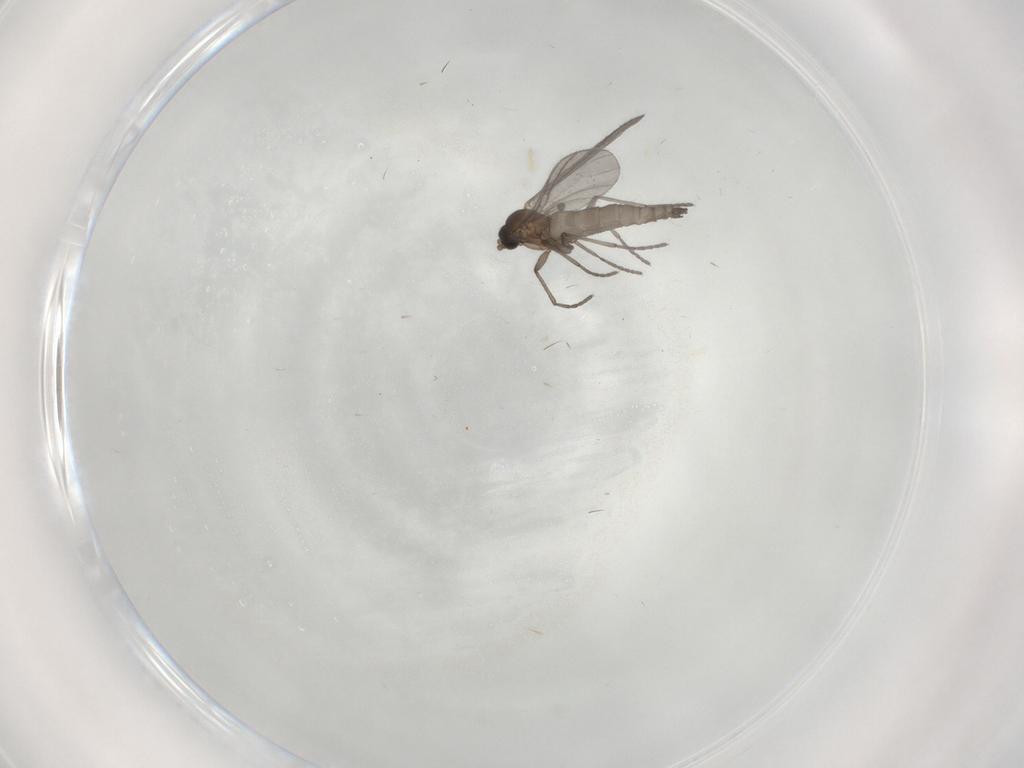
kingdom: Animalia
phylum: Arthropoda
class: Insecta
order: Diptera
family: Sciaridae
